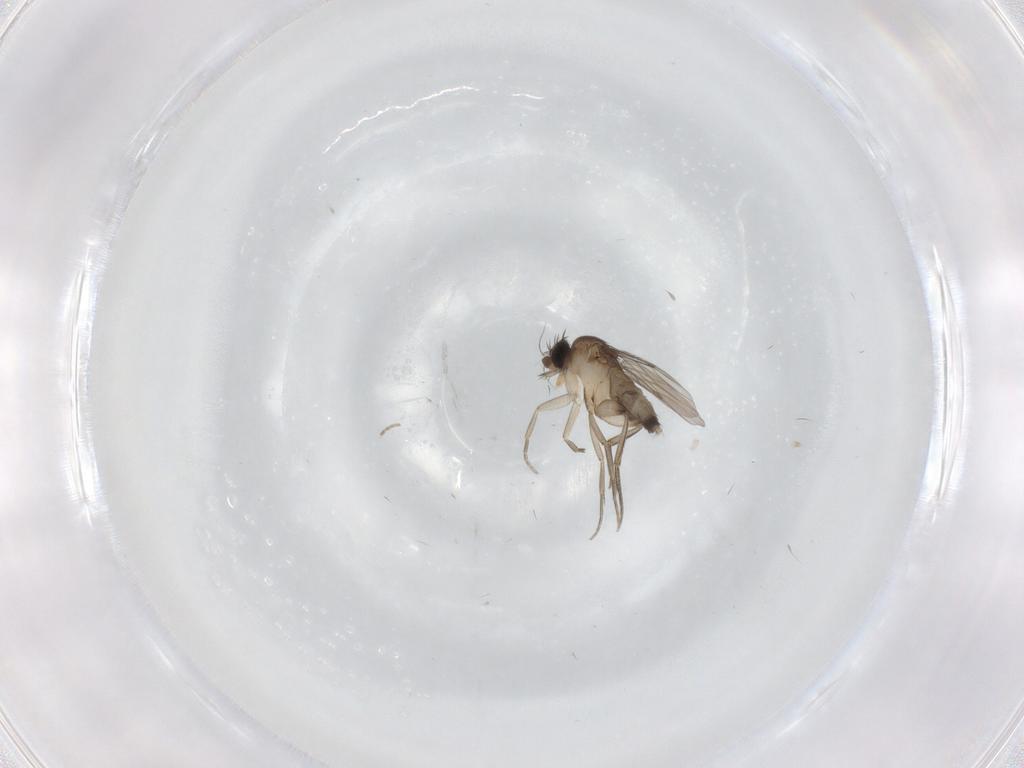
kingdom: Animalia
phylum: Arthropoda
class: Insecta
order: Diptera
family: Phoridae
